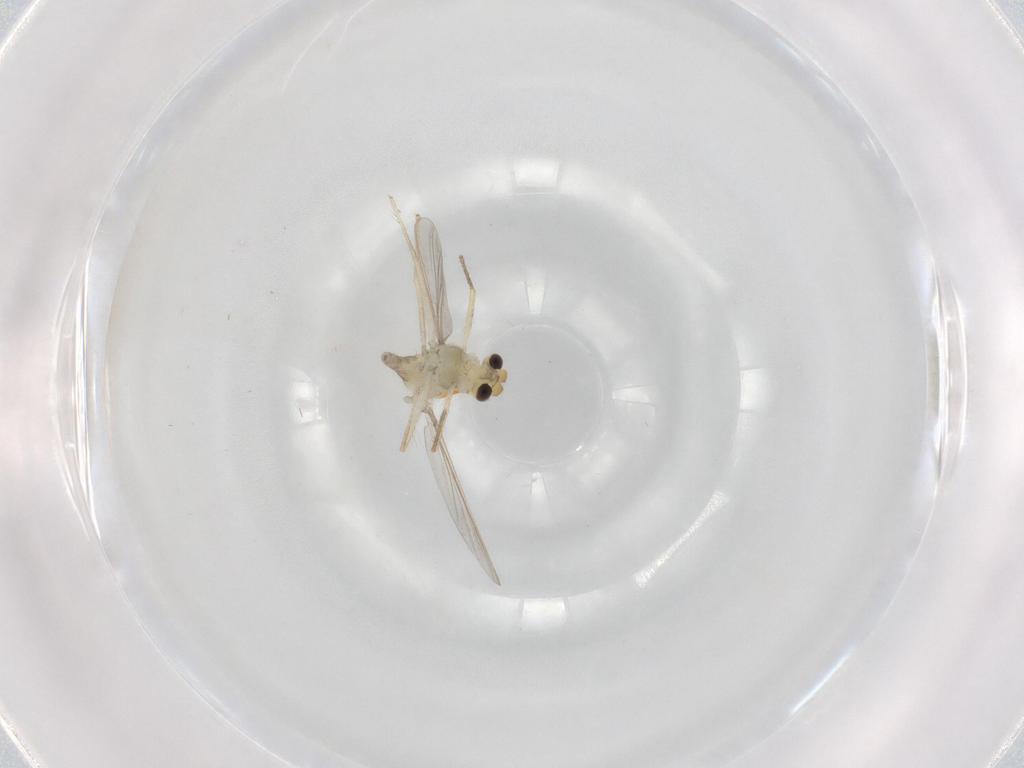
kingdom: Animalia
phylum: Arthropoda
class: Insecta
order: Diptera
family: Chironomidae
